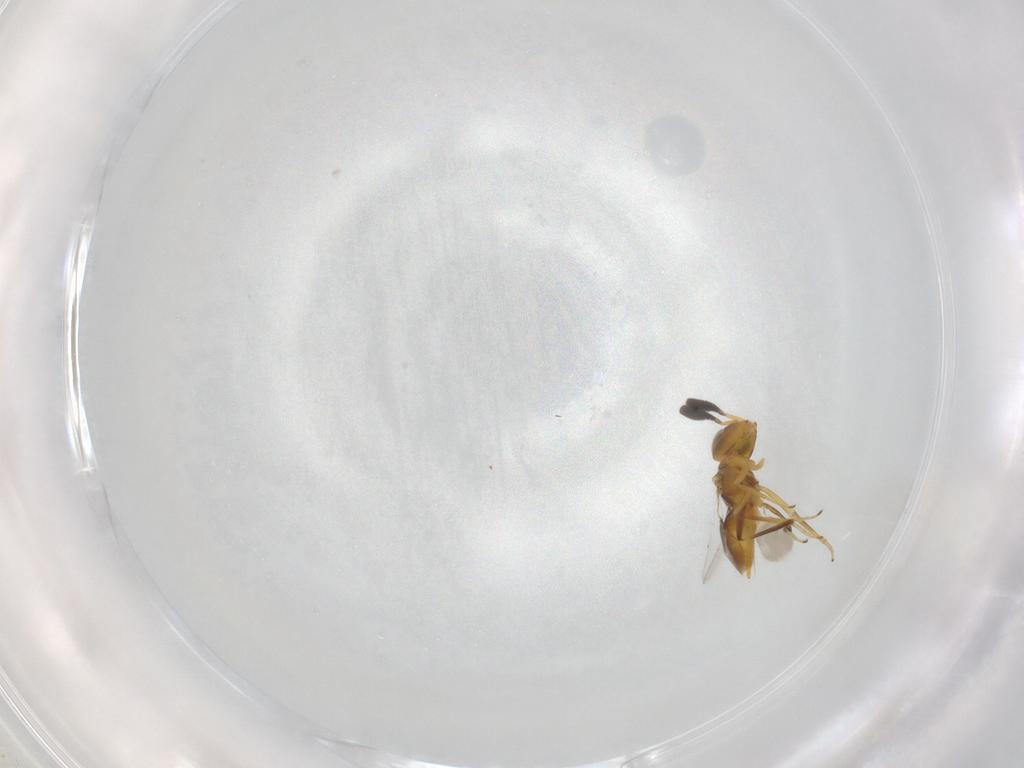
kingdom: Animalia
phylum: Arthropoda
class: Insecta
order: Hymenoptera
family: Encyrtidae
